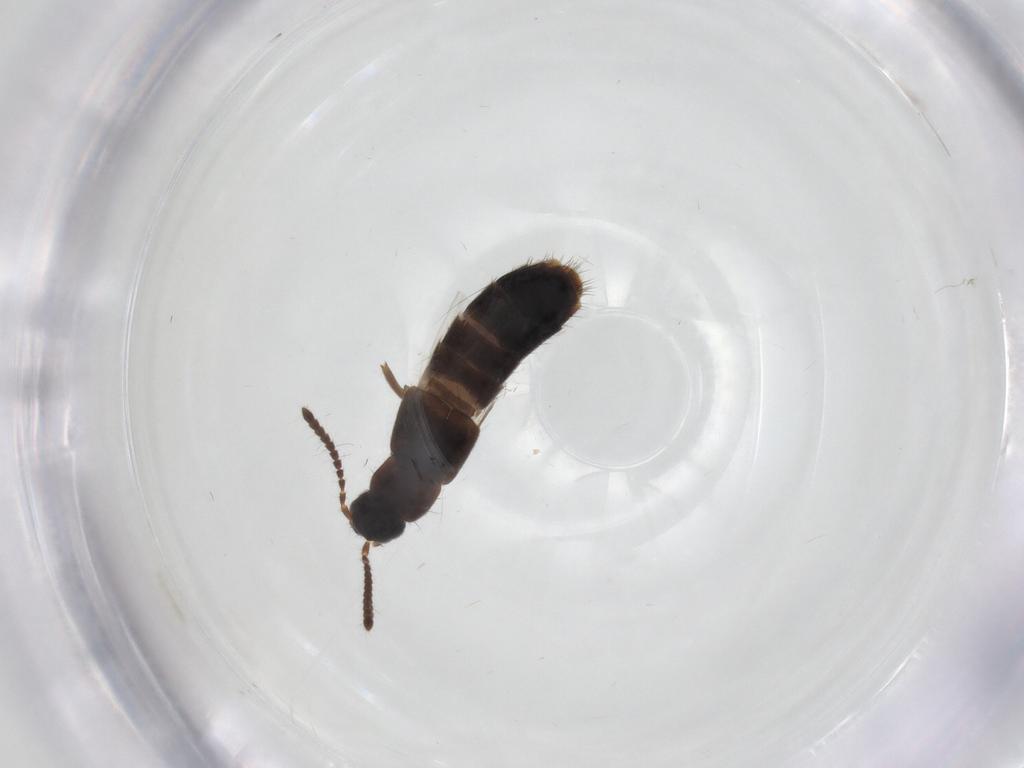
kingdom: Animalia
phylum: Arthropoda
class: Insecta
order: Coleoptera
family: Staphylinidae
